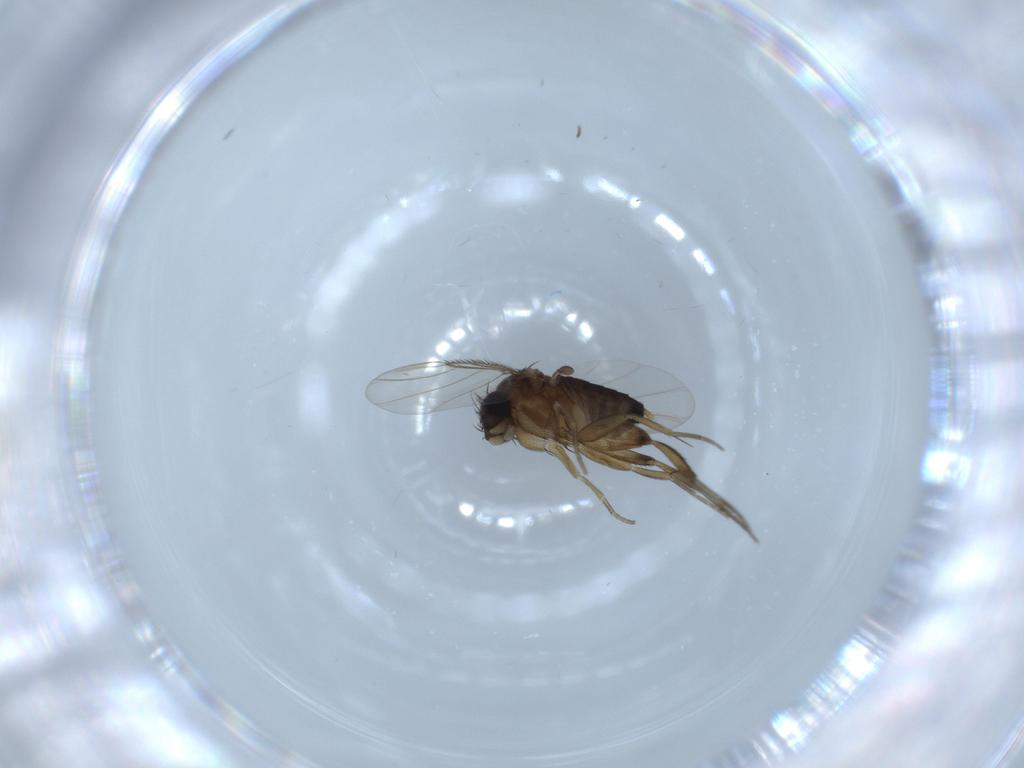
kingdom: Animalia
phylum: Arthropoda
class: Insecta
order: Diptera
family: Phoridae
